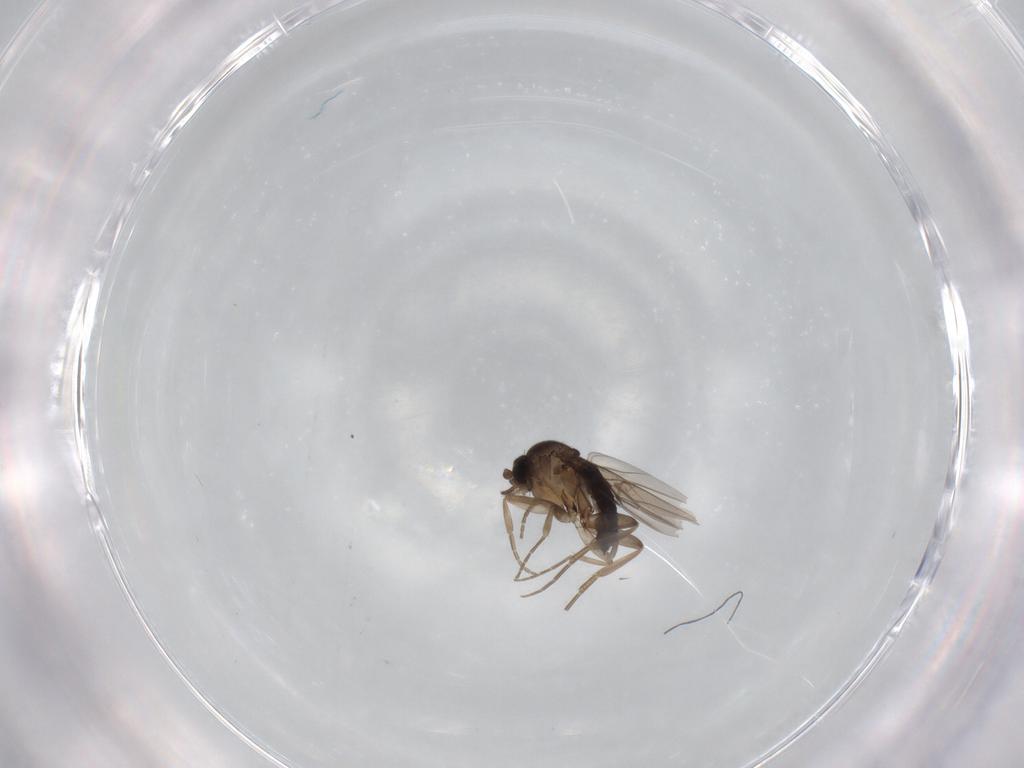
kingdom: Animalia
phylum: Arthropoda
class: Insecta
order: Diptera
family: Phoridae
